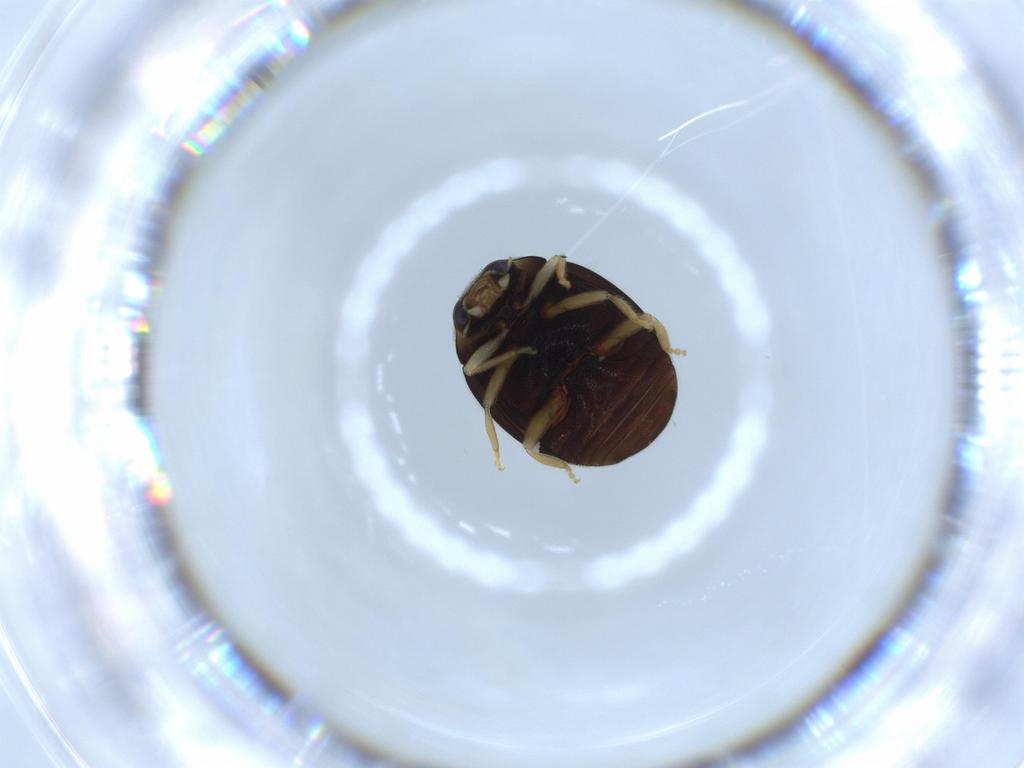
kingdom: Animalia
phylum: Arthropoda
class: Insecta
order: Coleoptera
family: Coccinellidae
